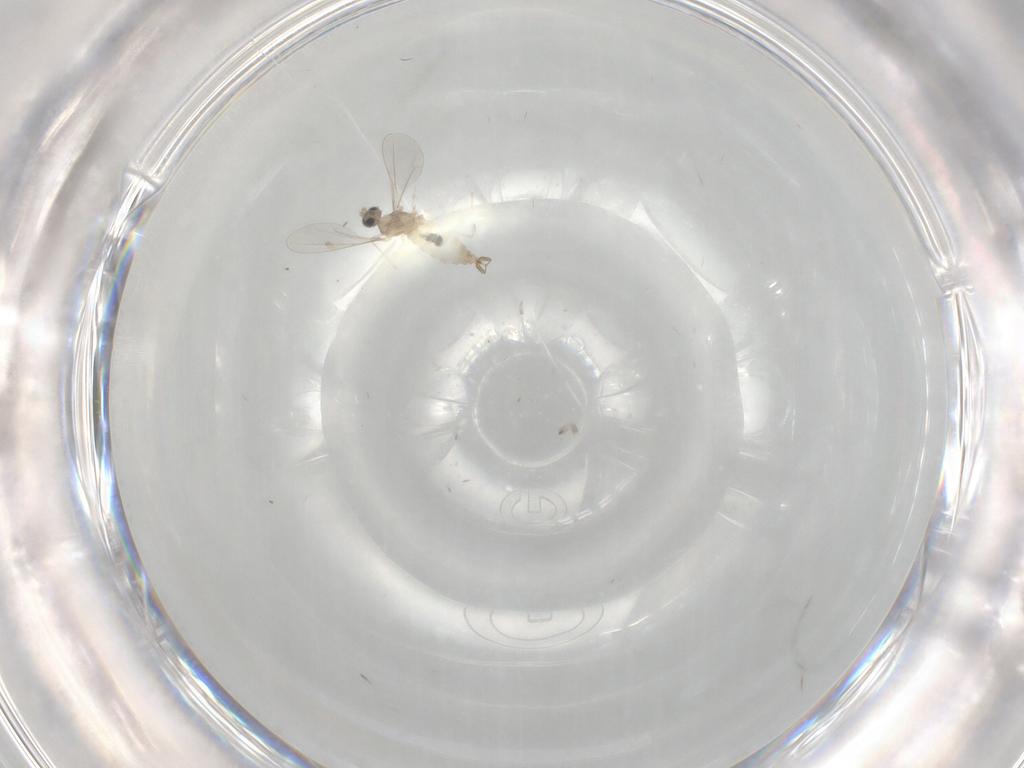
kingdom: Animalia
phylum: Arthropoda
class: Insecta
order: Diptera
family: Cecidomyiidae
